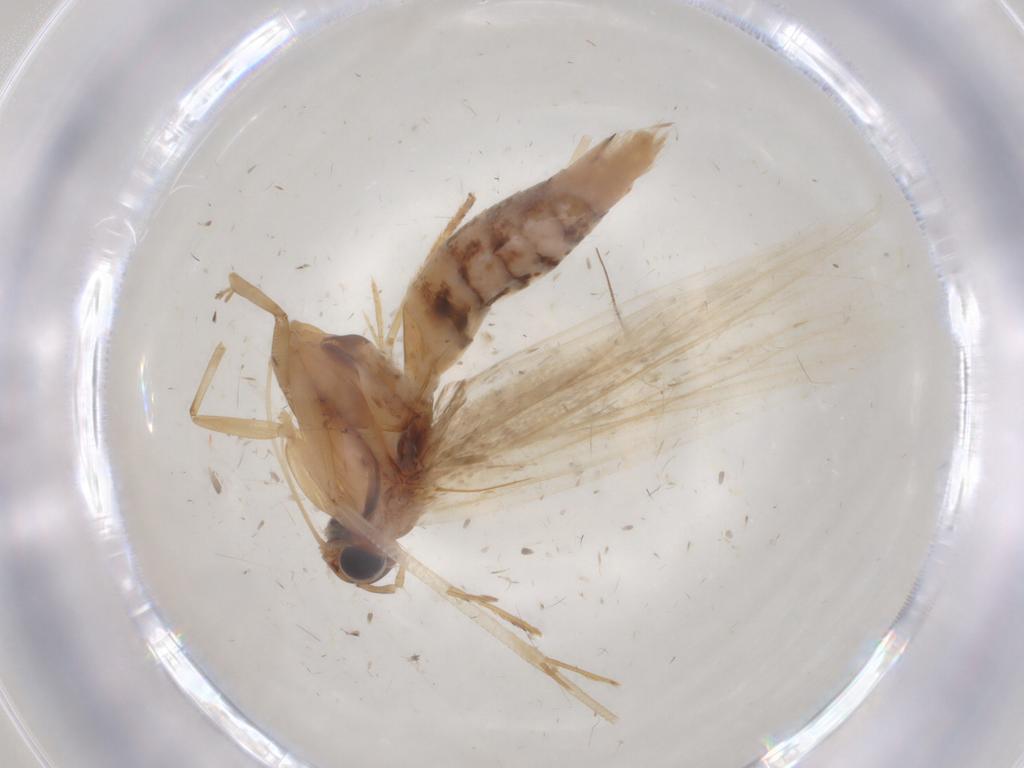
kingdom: Animalia
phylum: Arthropoda
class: Insecta
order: Lepidoptera
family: Gelechiidae
